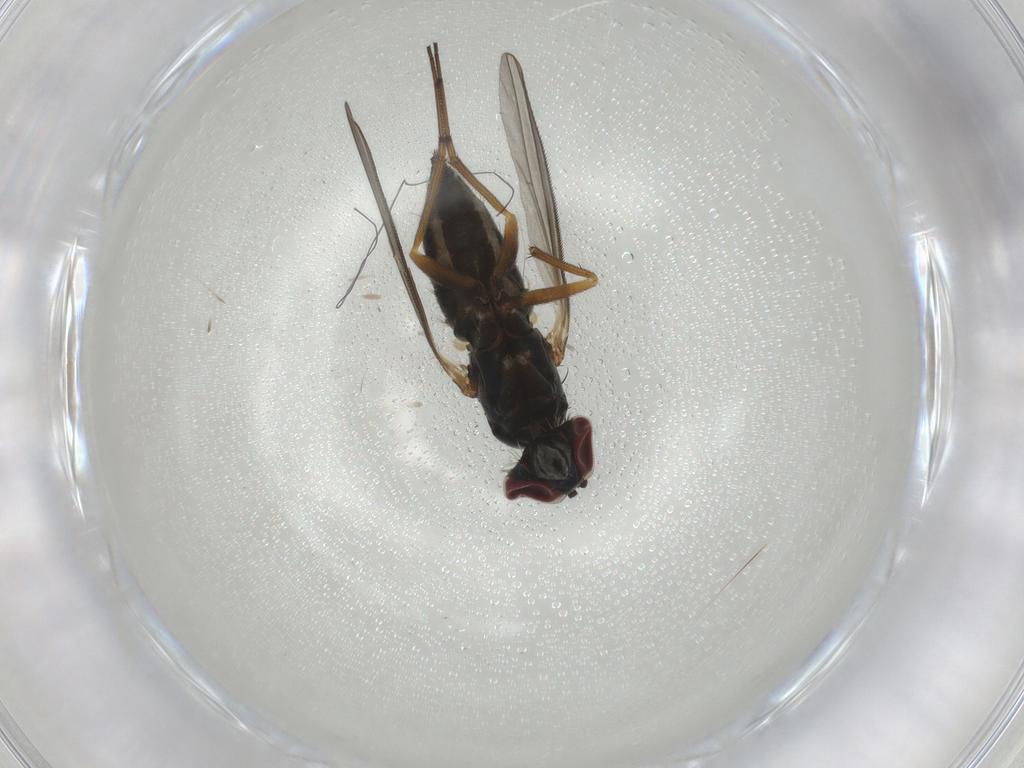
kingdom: Animalia
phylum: Arthropoda
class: Insecta
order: Diptera
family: Dolichopodidae
